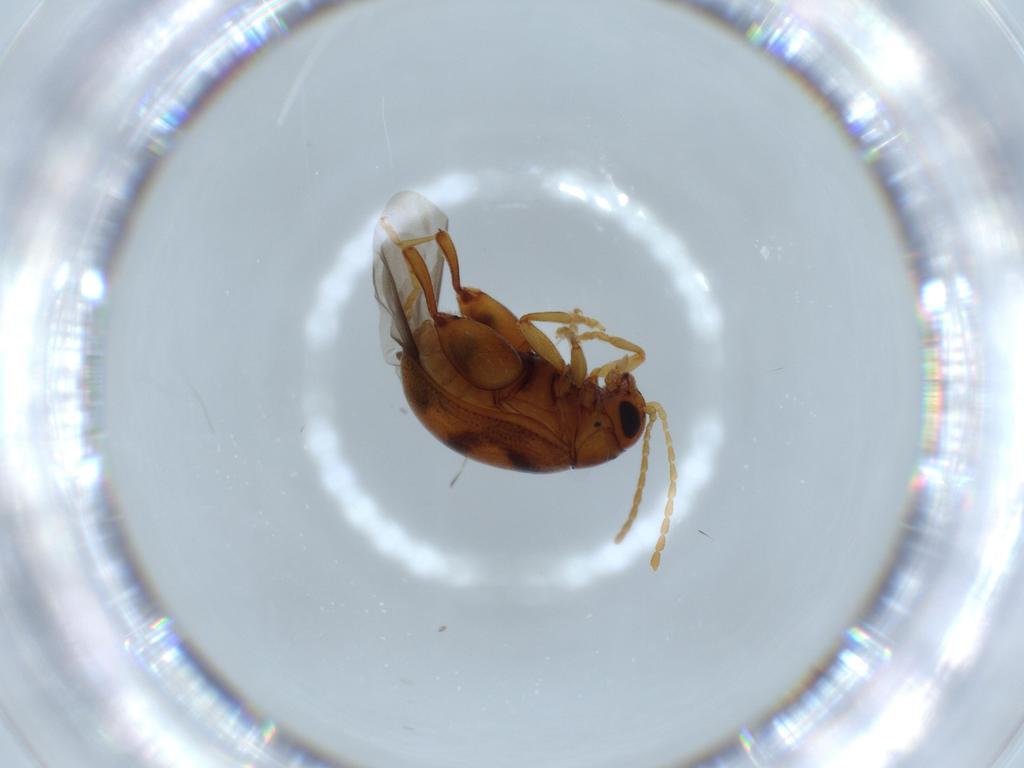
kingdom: Animalia
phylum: Arthropoda
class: Insecta
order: Coleoptera
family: Chrysomelidae
